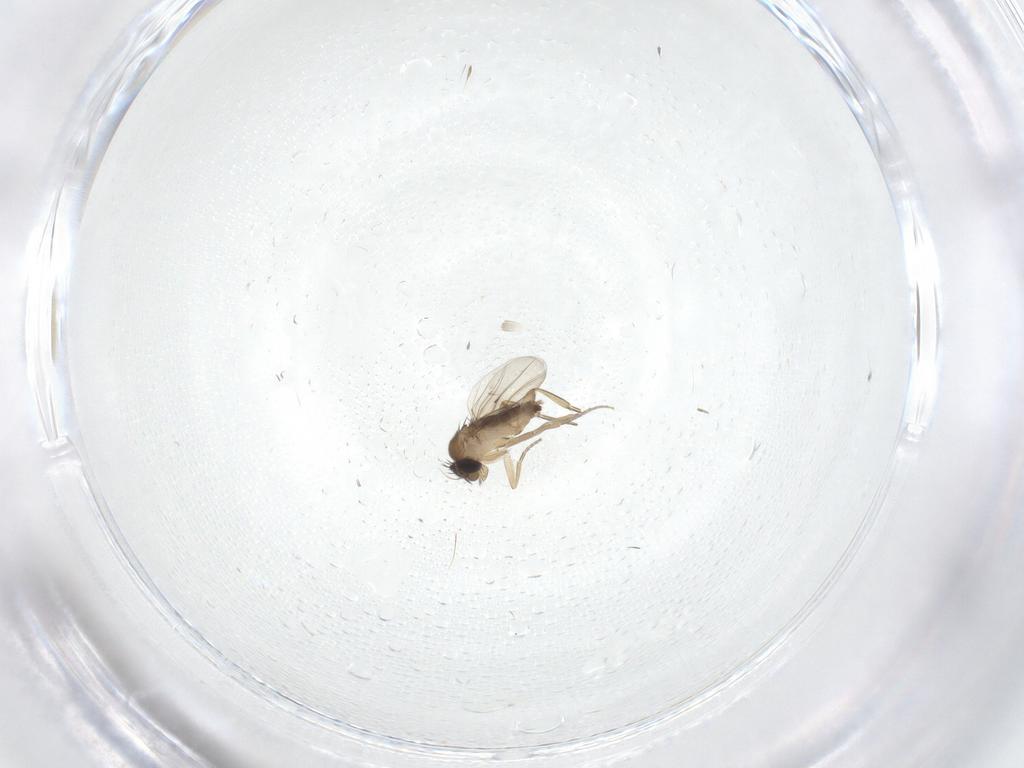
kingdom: Animalia
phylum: Arthropoda
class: Insecta
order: Diptera
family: Phoridae
